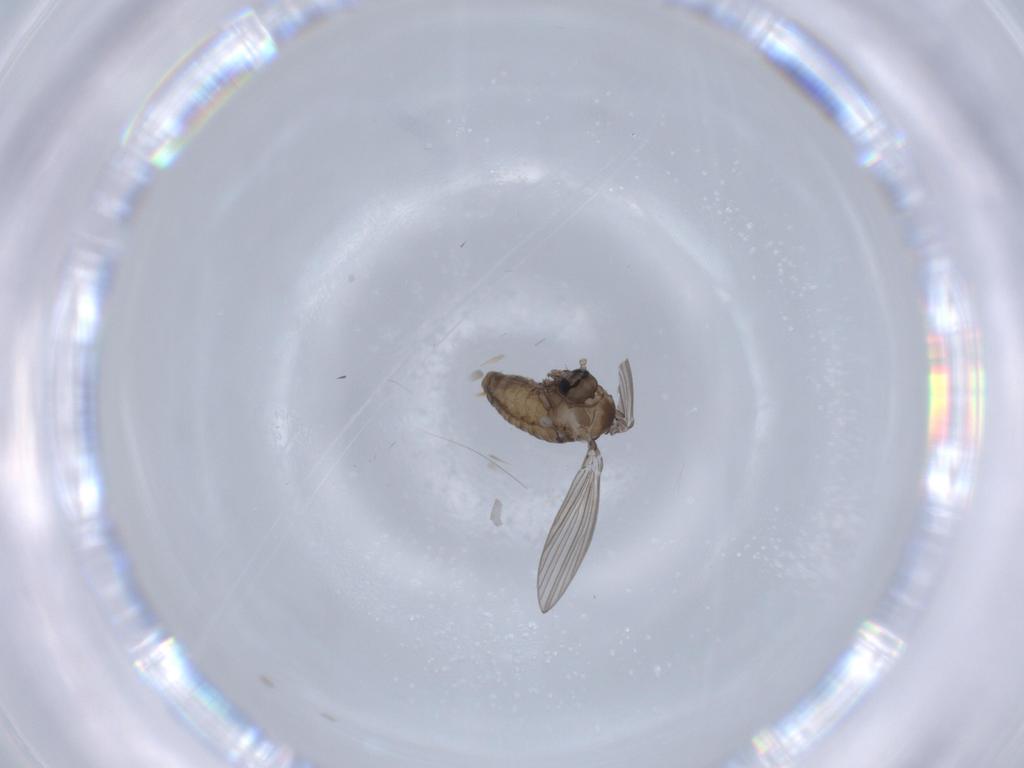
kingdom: Animalia
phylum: Arthropoda
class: Insecta
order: Diptera
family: Psychodidae
